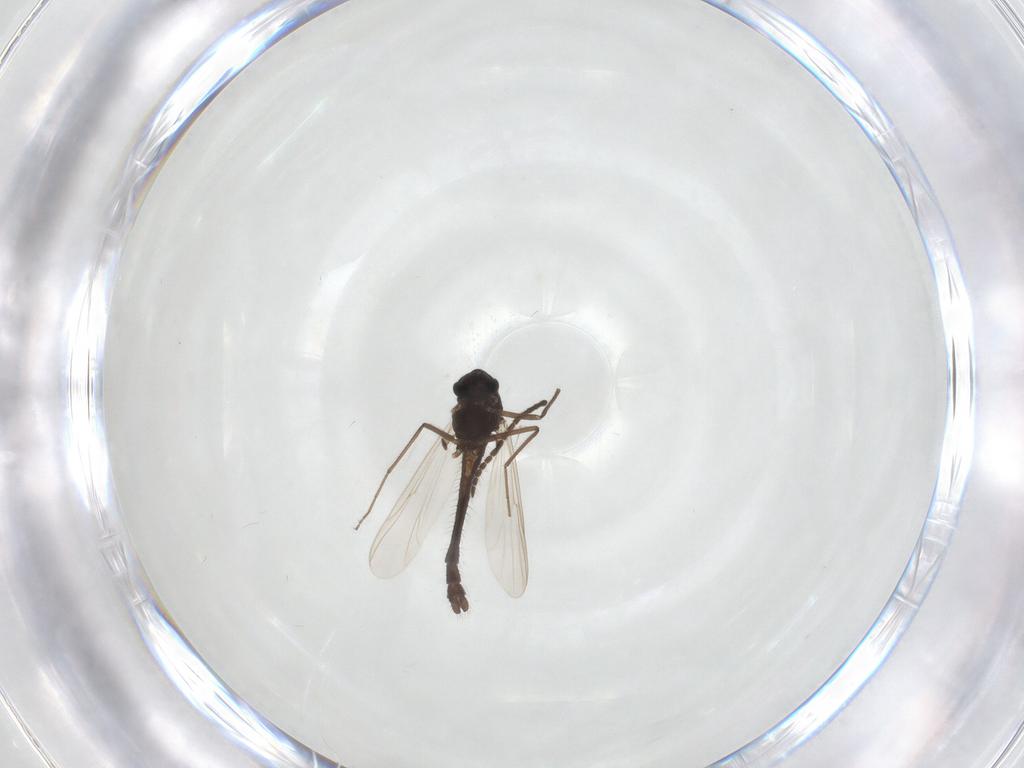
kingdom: Animalia
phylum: Arthropoda
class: Insecta
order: Diptera
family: Chironomidae
